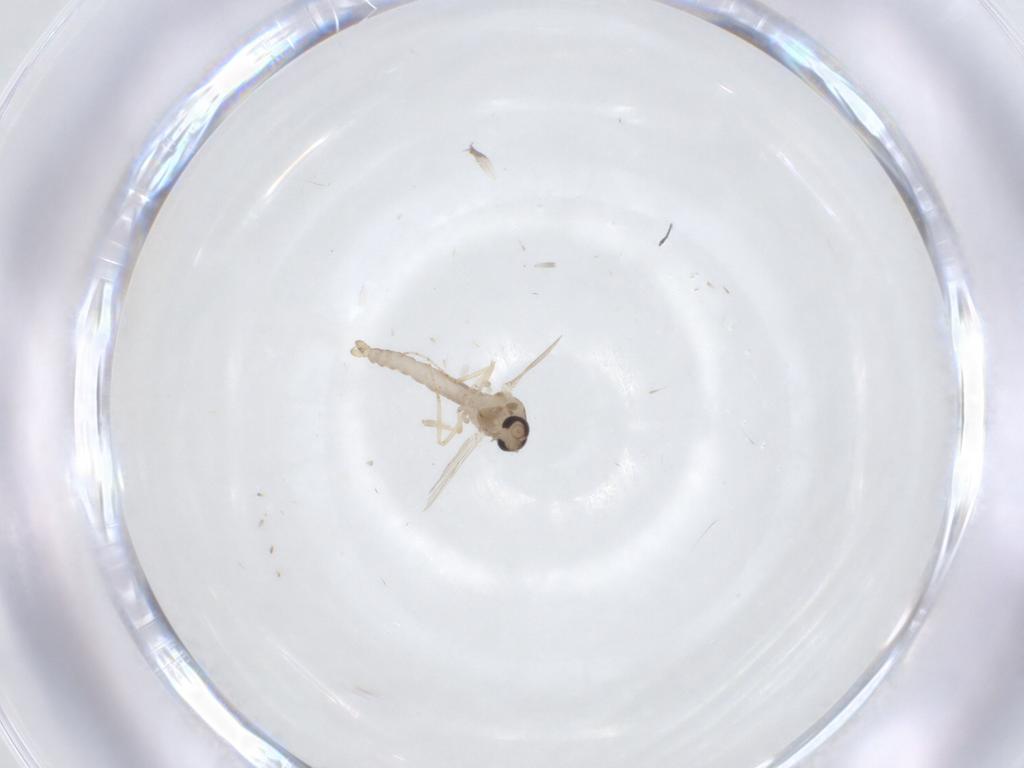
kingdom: Animalia
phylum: Arthropoda
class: Insecta
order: Diptera
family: Ceratopogonidae
